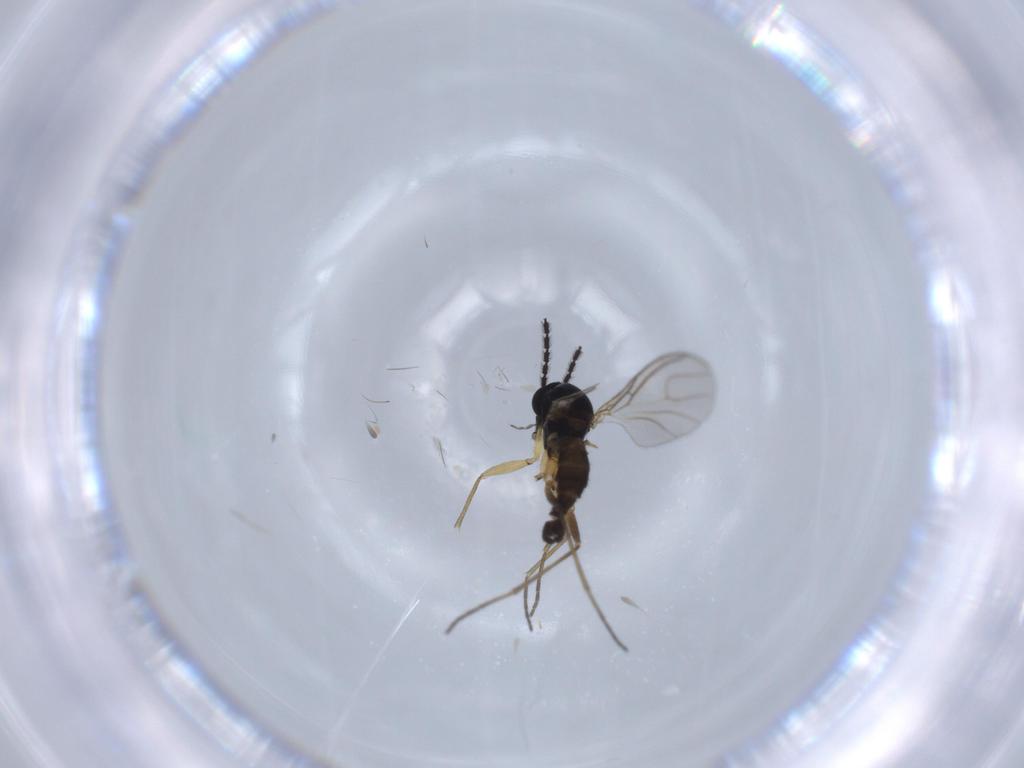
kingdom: Animalia
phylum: Arthropoda
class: Insecta
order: Diptera
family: Sciaridae
